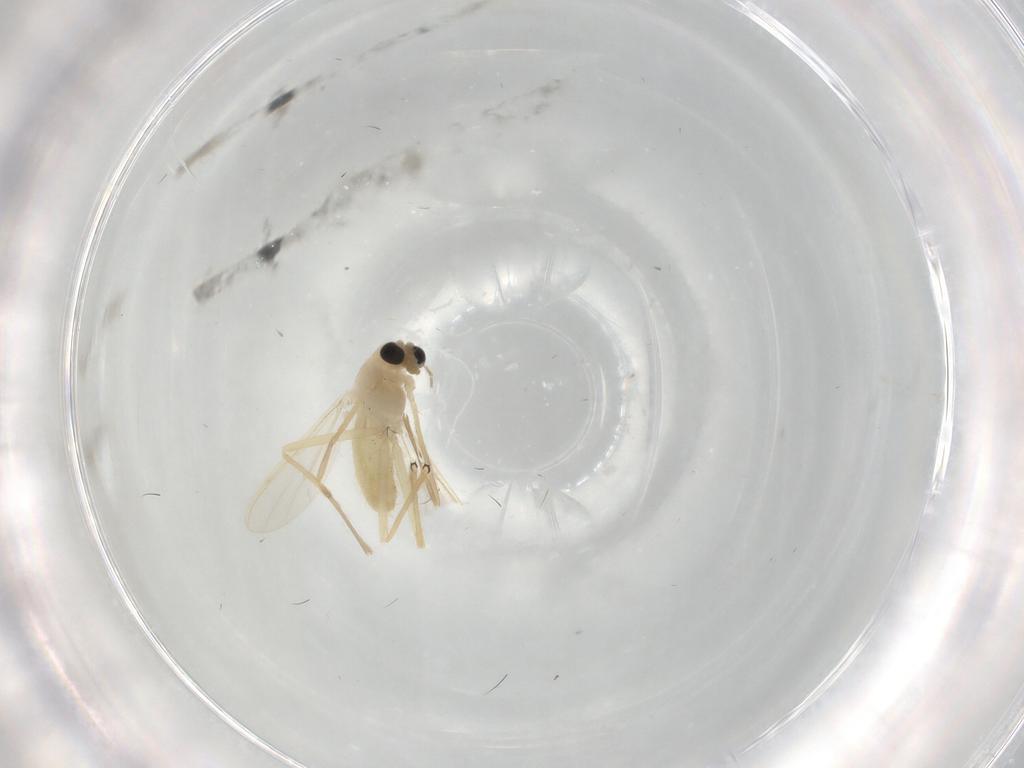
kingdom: Animalia
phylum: Arthropoda
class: Insecta
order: Diptera
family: Chironomidae
